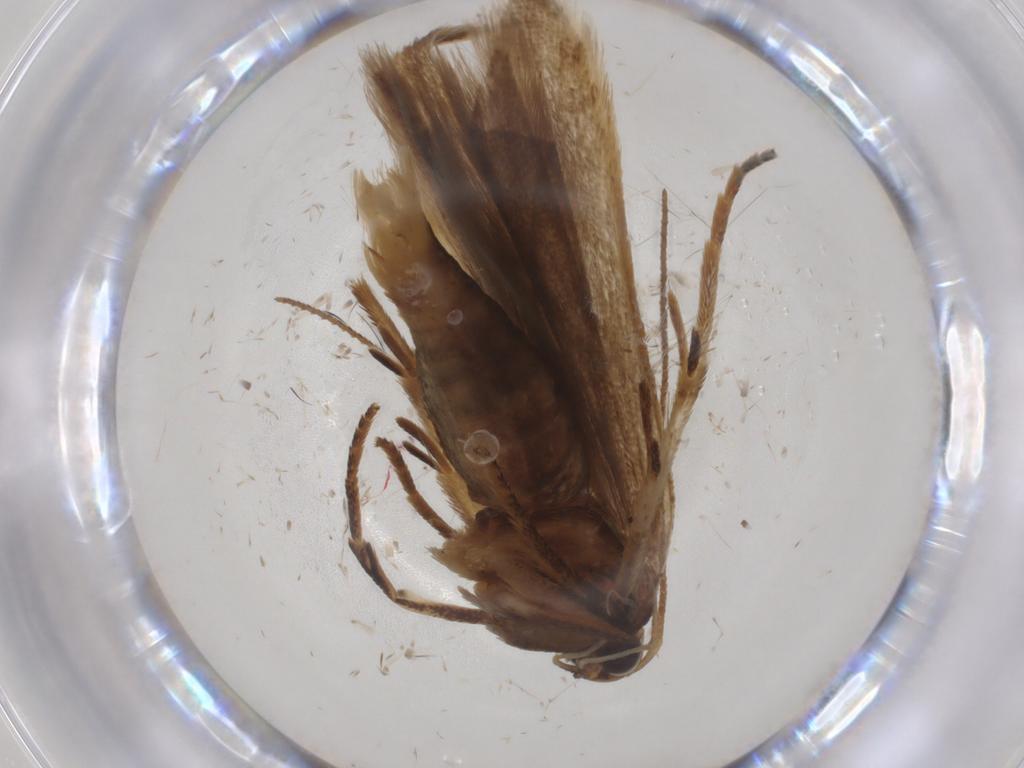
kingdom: Animalia
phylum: Arthropoda
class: Insecta
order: Lepidoptera
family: Gelechiidae
